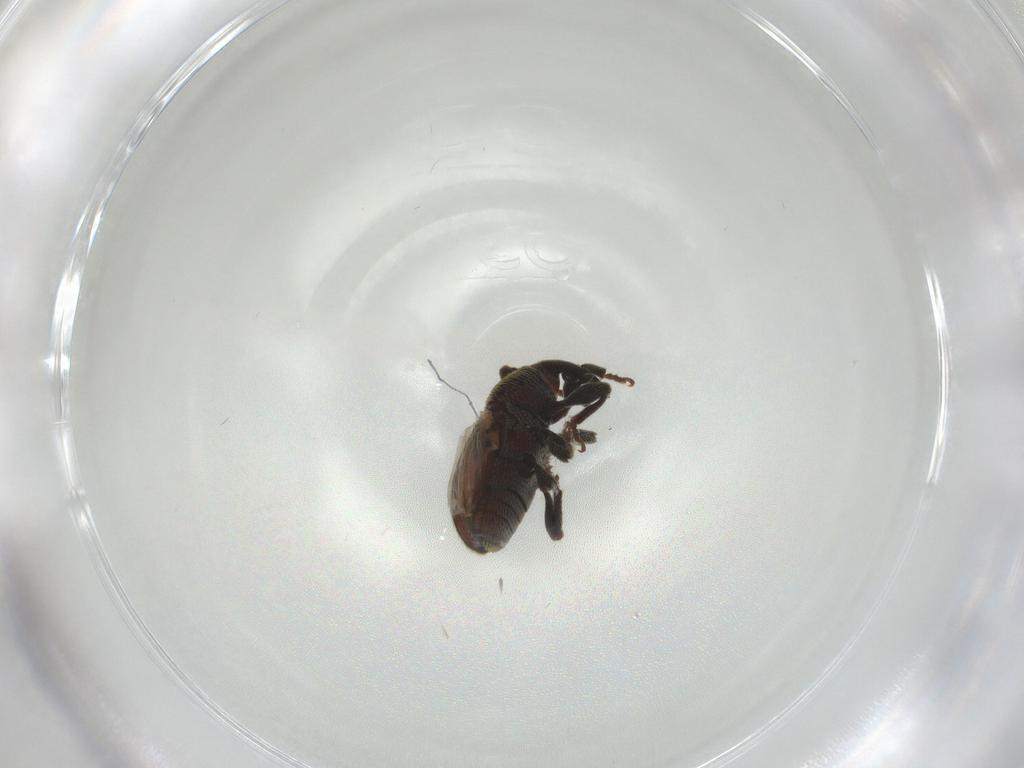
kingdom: Animalia
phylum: Arthropoda
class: Insecta
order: Coleoptera
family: Curculionidae
